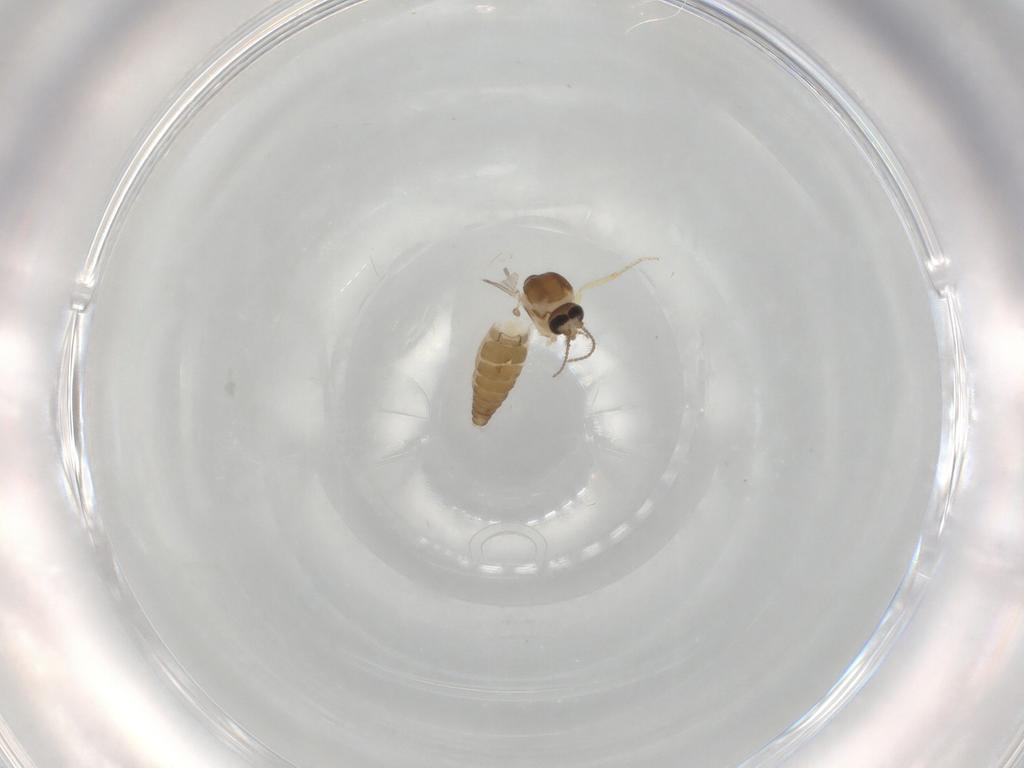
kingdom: Animalia
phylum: Arthropoda
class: Insecta
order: Diptera
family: Ceratopogonidae
